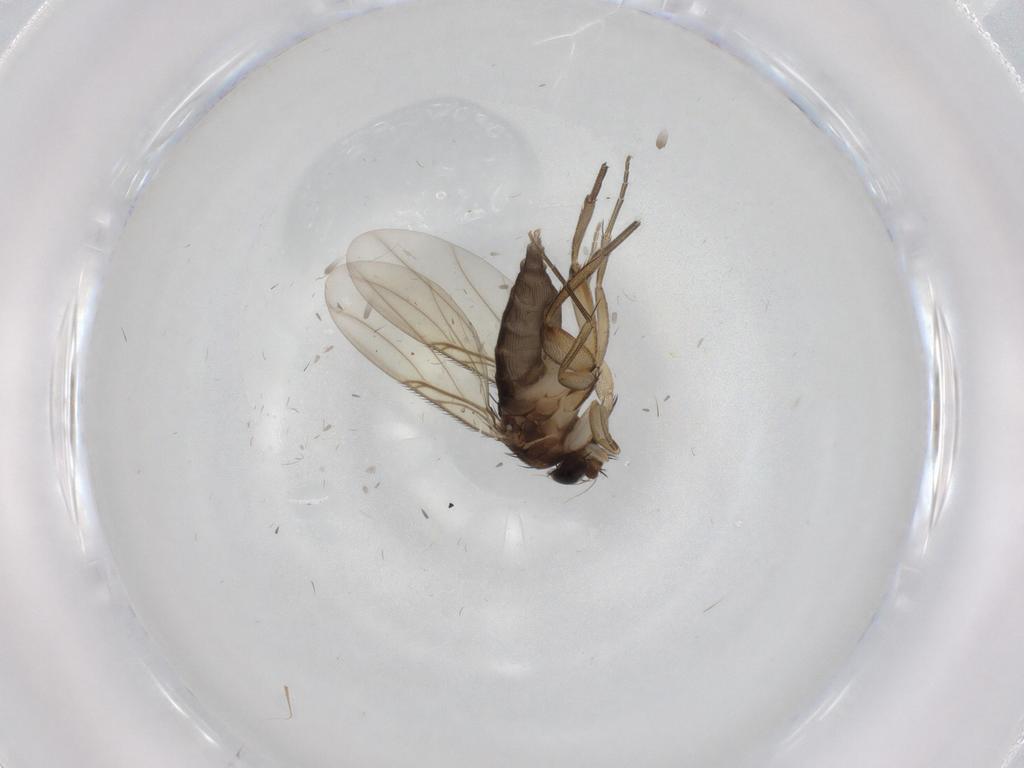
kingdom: Animalia
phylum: Arthropoda
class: Insecta
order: Diptera
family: Phoridae
